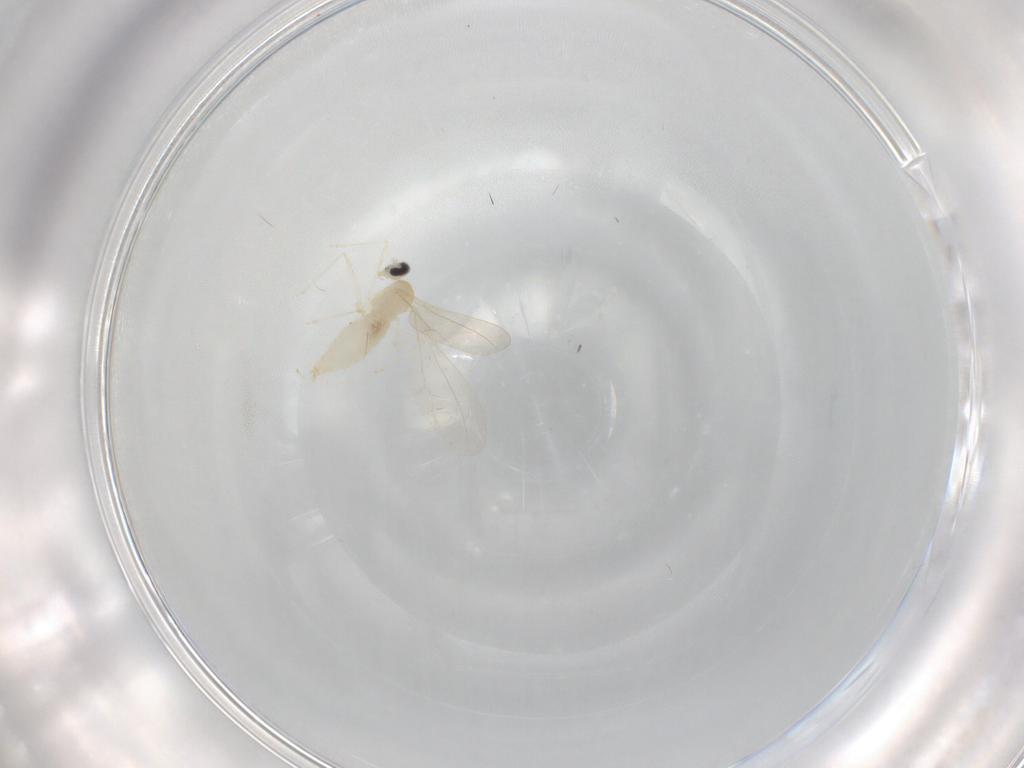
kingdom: Animalia
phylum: Arthropoda
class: Insecta
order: Diptera
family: Cecidomyiidae
